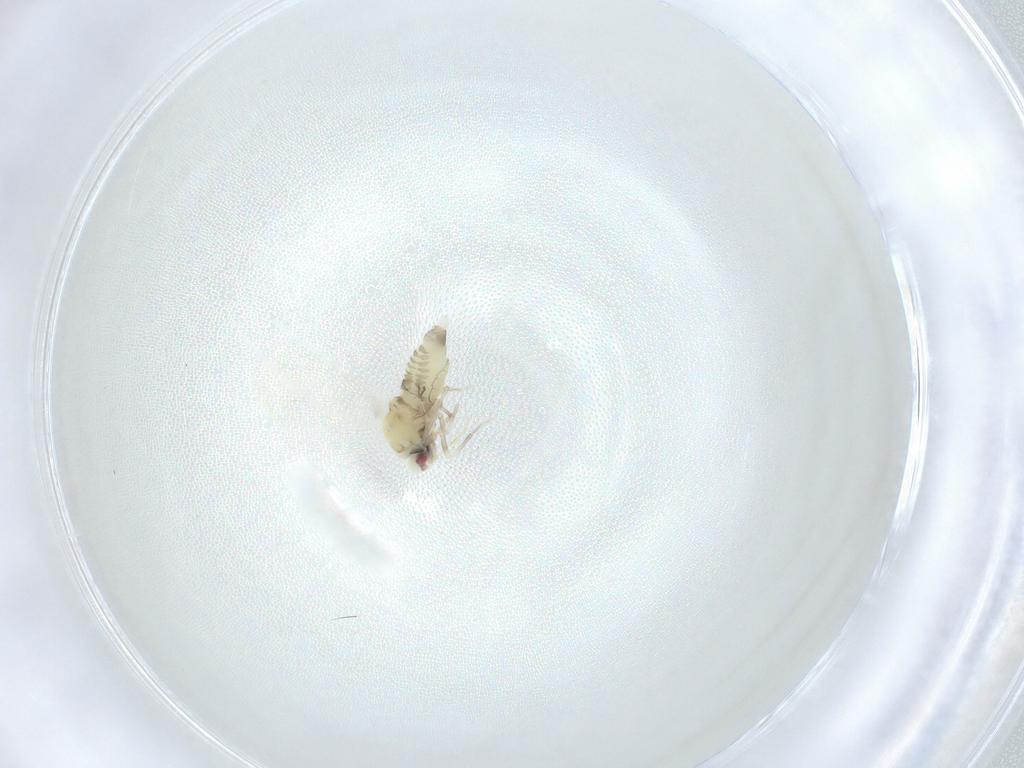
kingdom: Animalia
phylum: Arthropoda
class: Insecta
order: Hemiptera
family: Aleyrodidae
